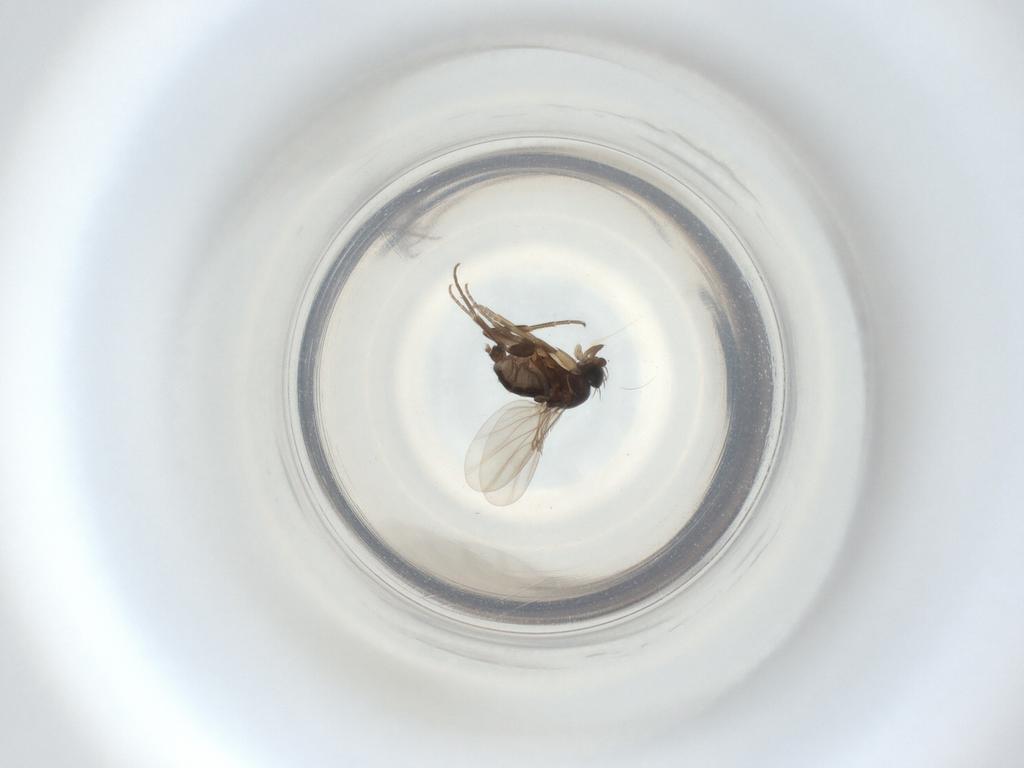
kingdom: Animalia
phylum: Arthropoda
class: Insecta
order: Diptera
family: Phoridae
